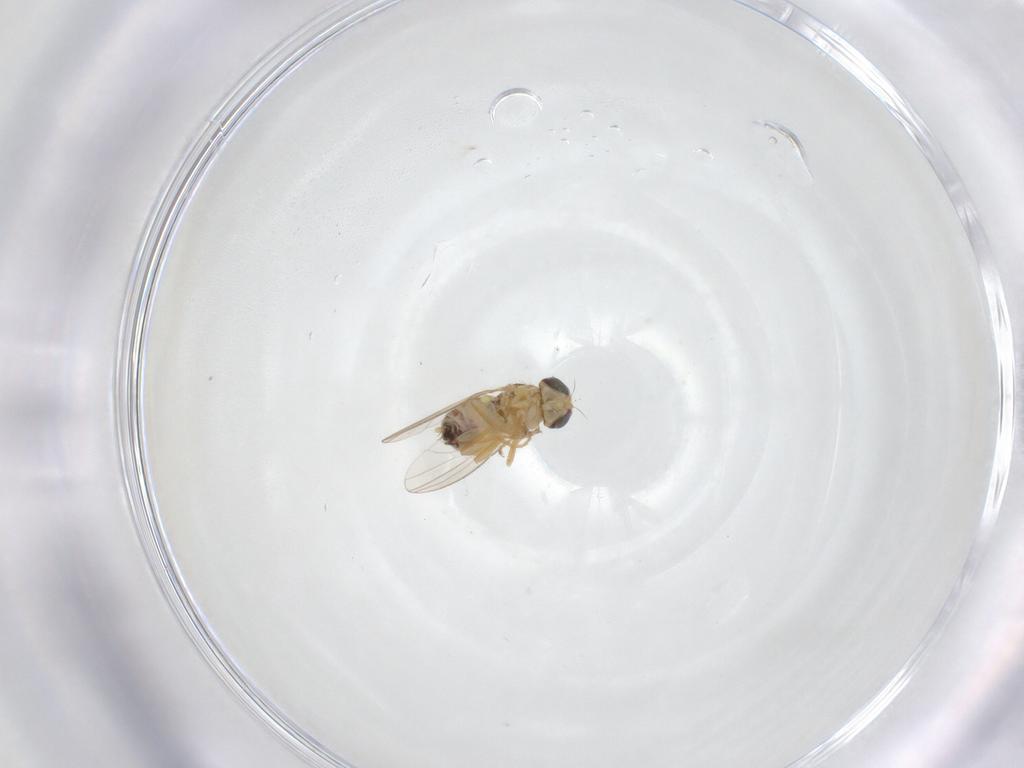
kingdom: Animalia
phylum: Arthropoda
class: Insecta
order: Diptera
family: Chyromyidae
